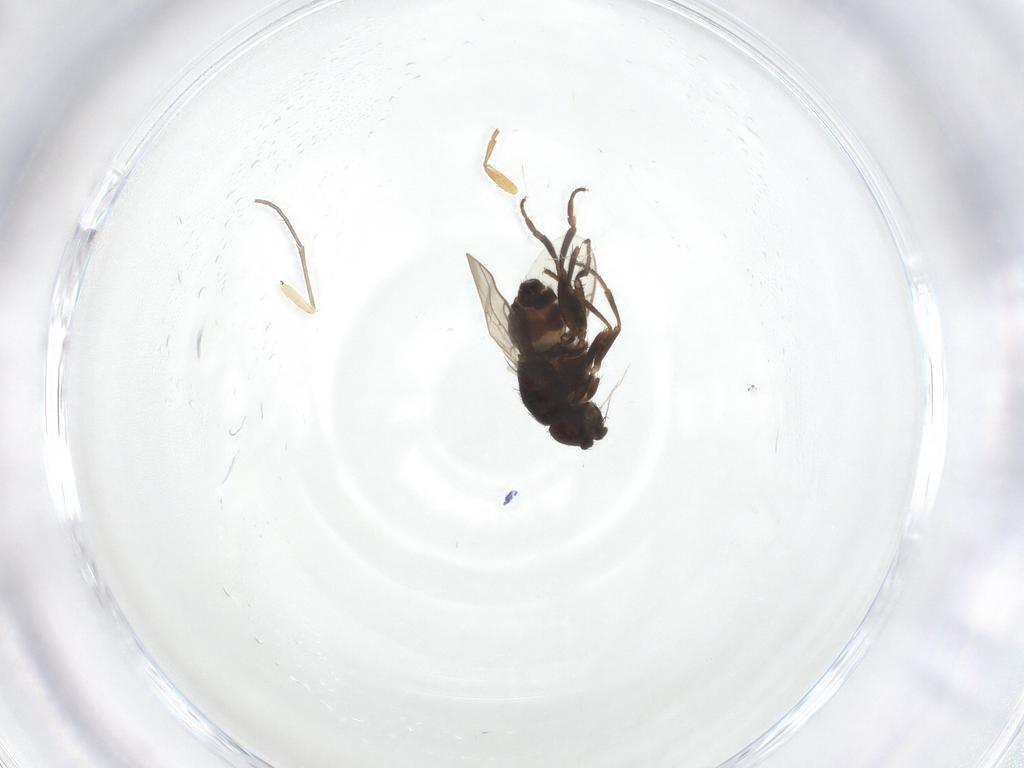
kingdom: Animalia
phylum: Arthropoda
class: Insecta
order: Diptera
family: Sphaeroceridae
